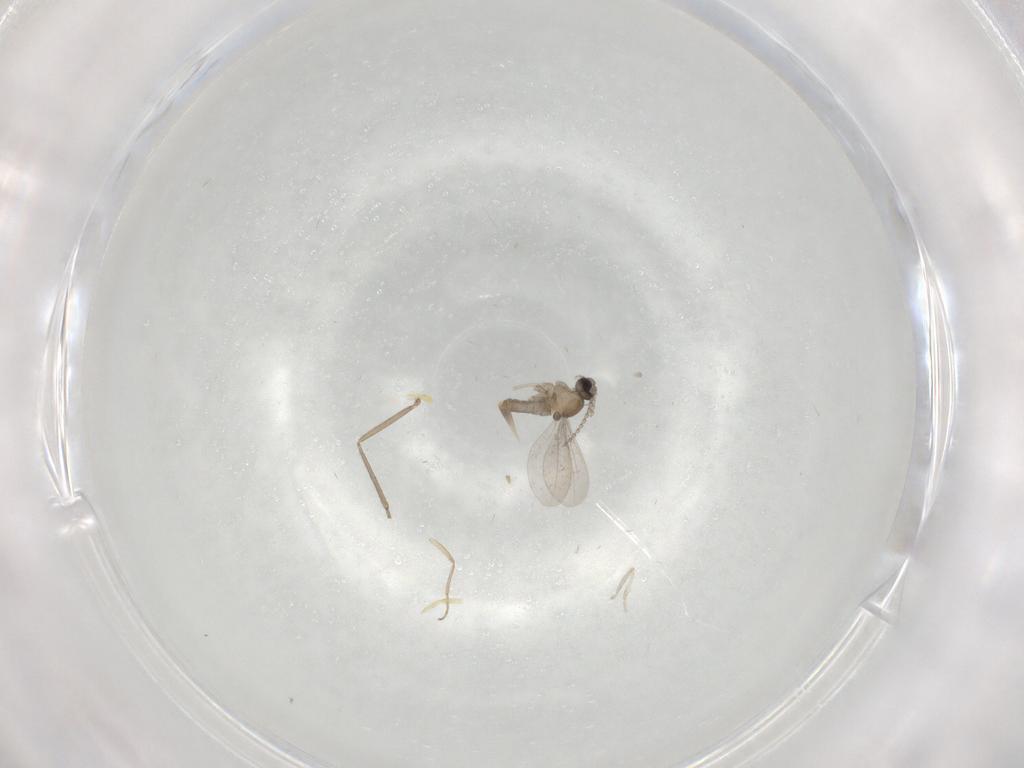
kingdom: Animalia
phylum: Arthropoda
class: Insecta
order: Diptera
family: Cecidomyiidae
